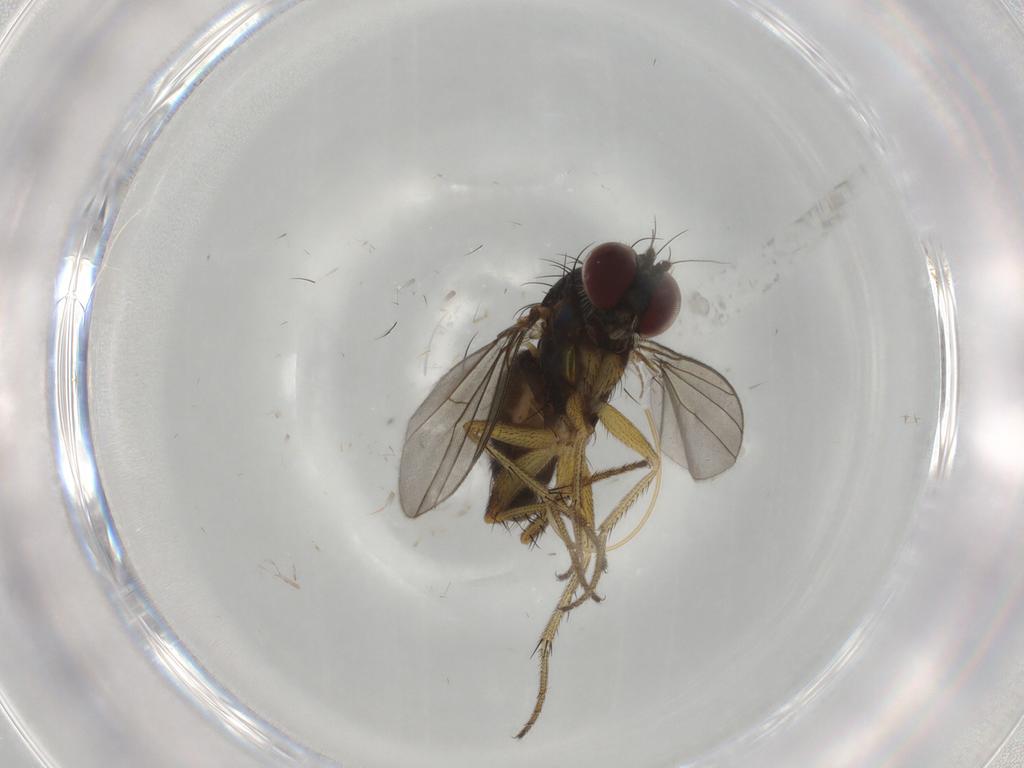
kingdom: Animalia
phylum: Arthropoda
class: Insecta
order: Diptera
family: Dolichopodidae
